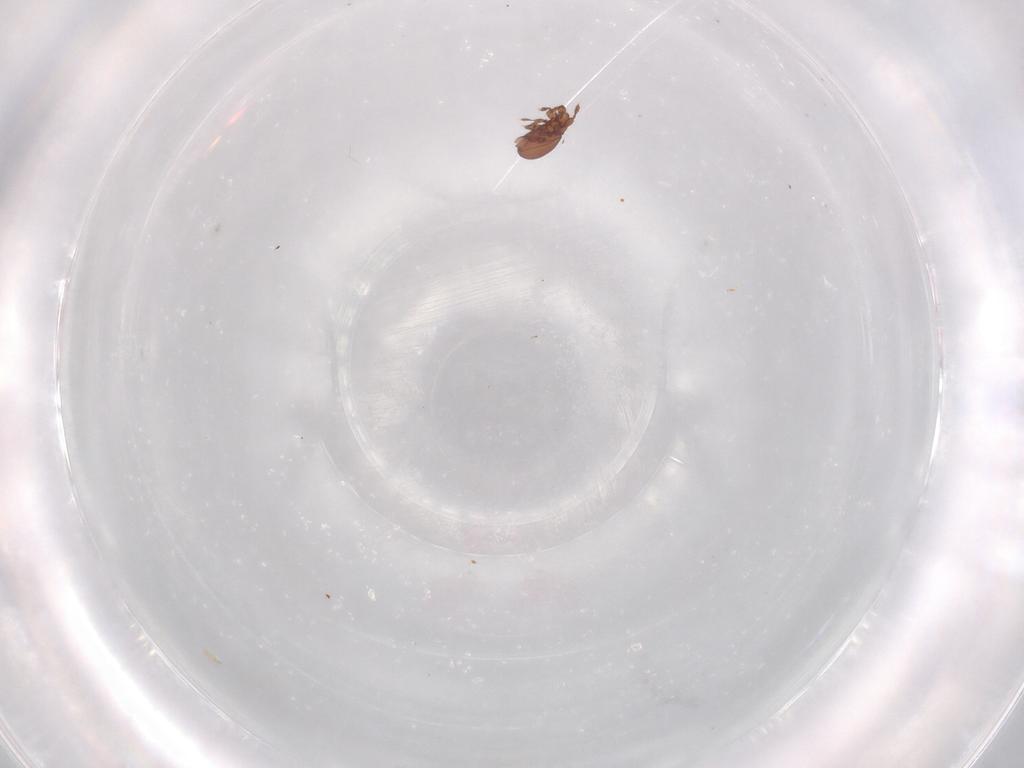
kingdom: Animalia
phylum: Arthropoda
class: Arachnida
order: Sarcoptiformes
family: Eremaeidae
